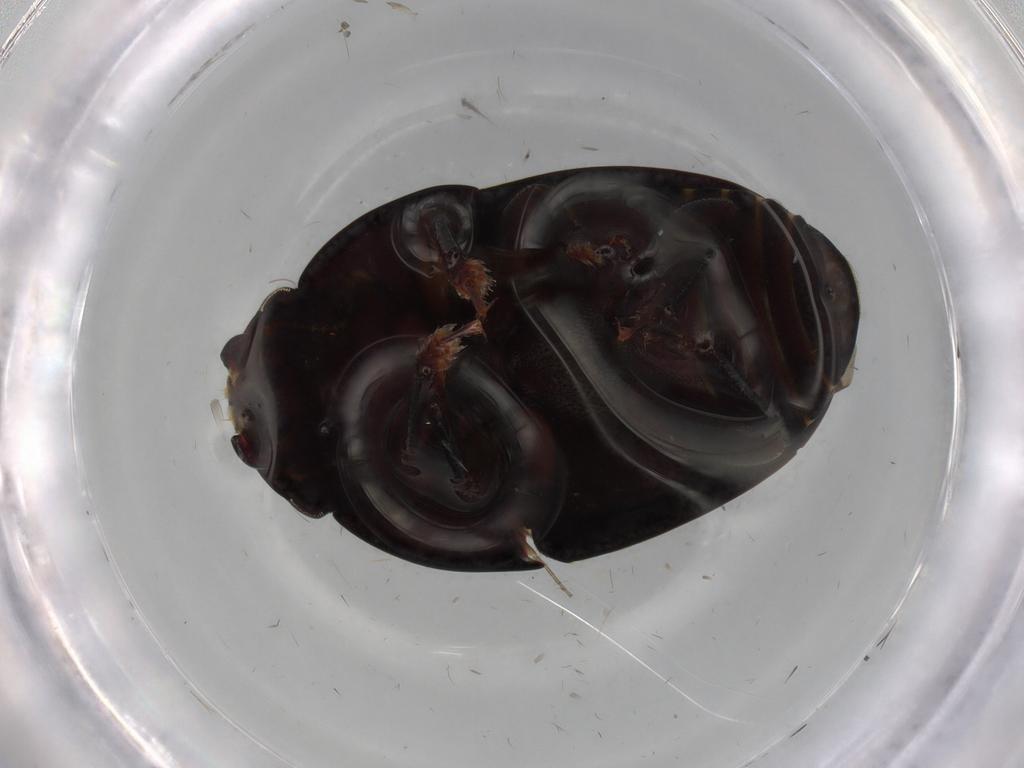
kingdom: Animalia
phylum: Arthropoda
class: Insecta
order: Coleoptera
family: Nitidulidae
